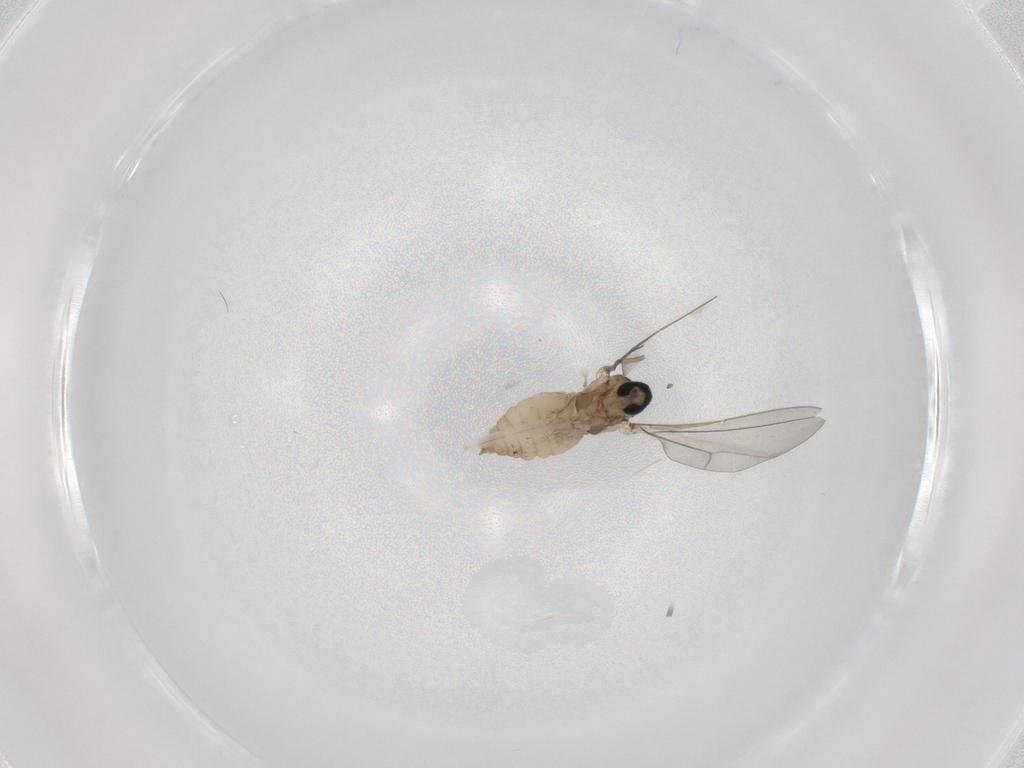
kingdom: Animalia
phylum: Arthropoda
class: Insecta
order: Diptera
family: Cecidomyiidae
